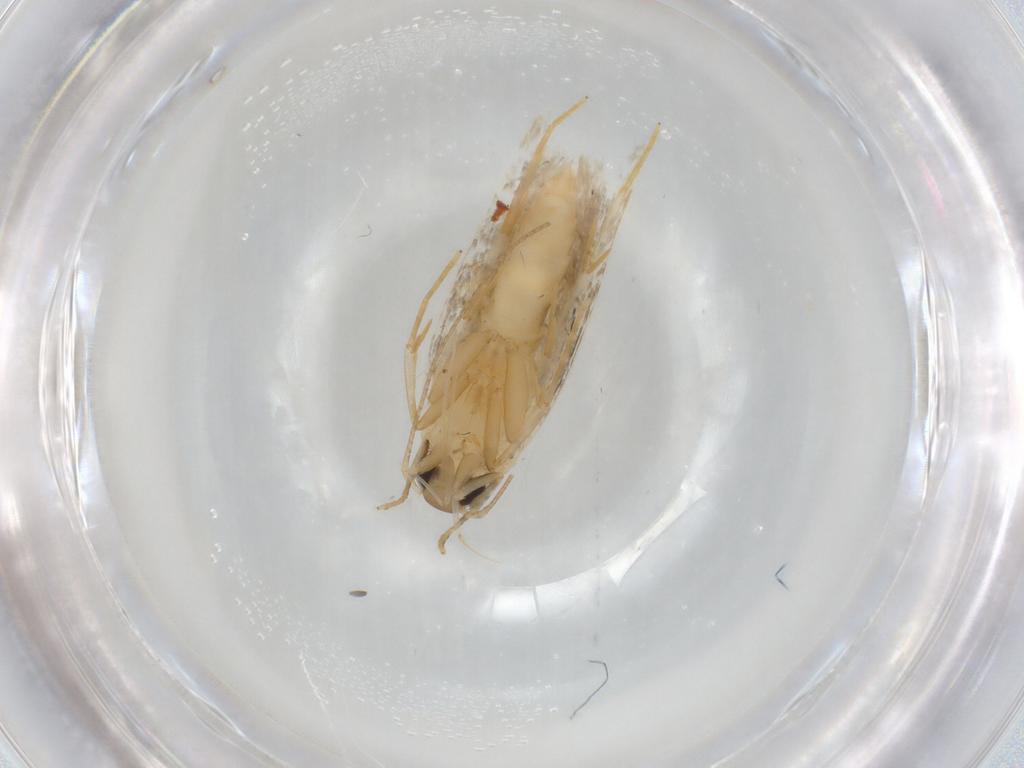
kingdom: Animalia
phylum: Arthropoda
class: Insecta
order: Lepidoptera
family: Autostichidae
